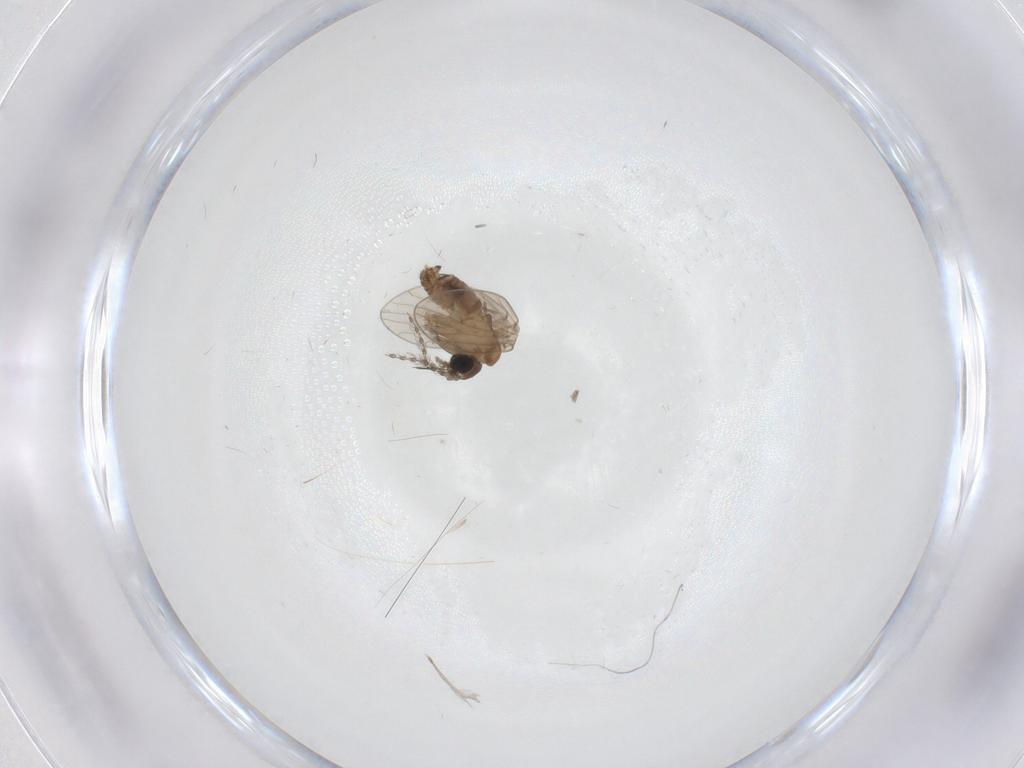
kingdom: Animalia
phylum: Arthropoda
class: Insecta
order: Diptera
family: Psychodidae
